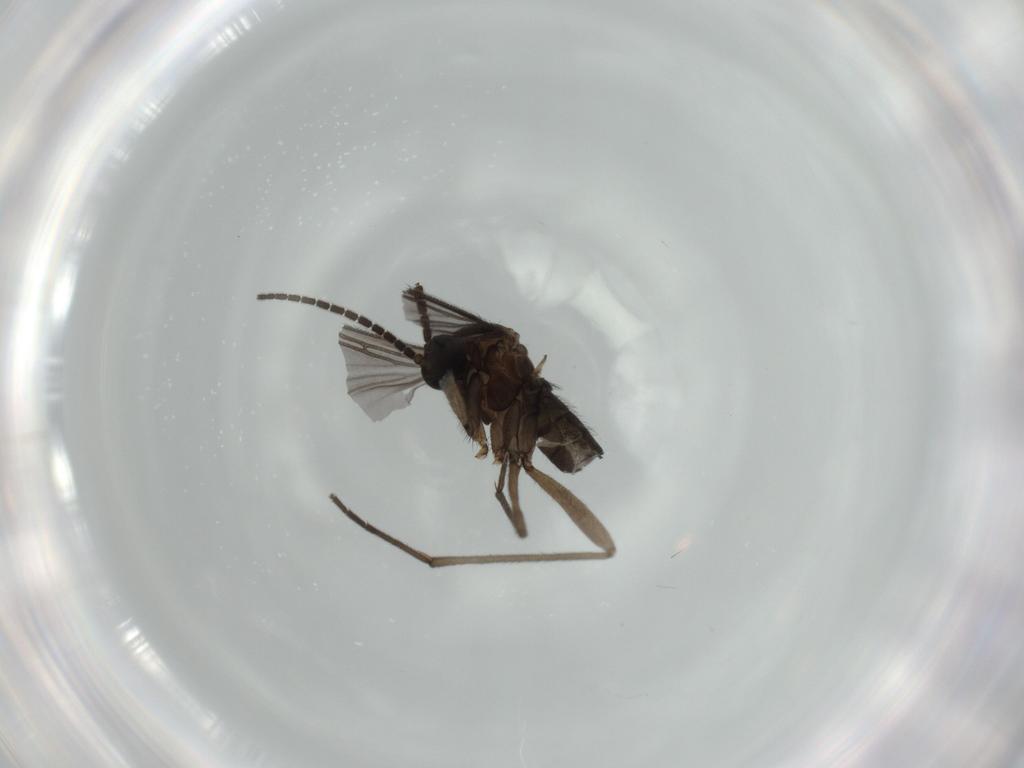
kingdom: Animalia
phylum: Arthropoda
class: Insecta
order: Diptera
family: Sciaridae
